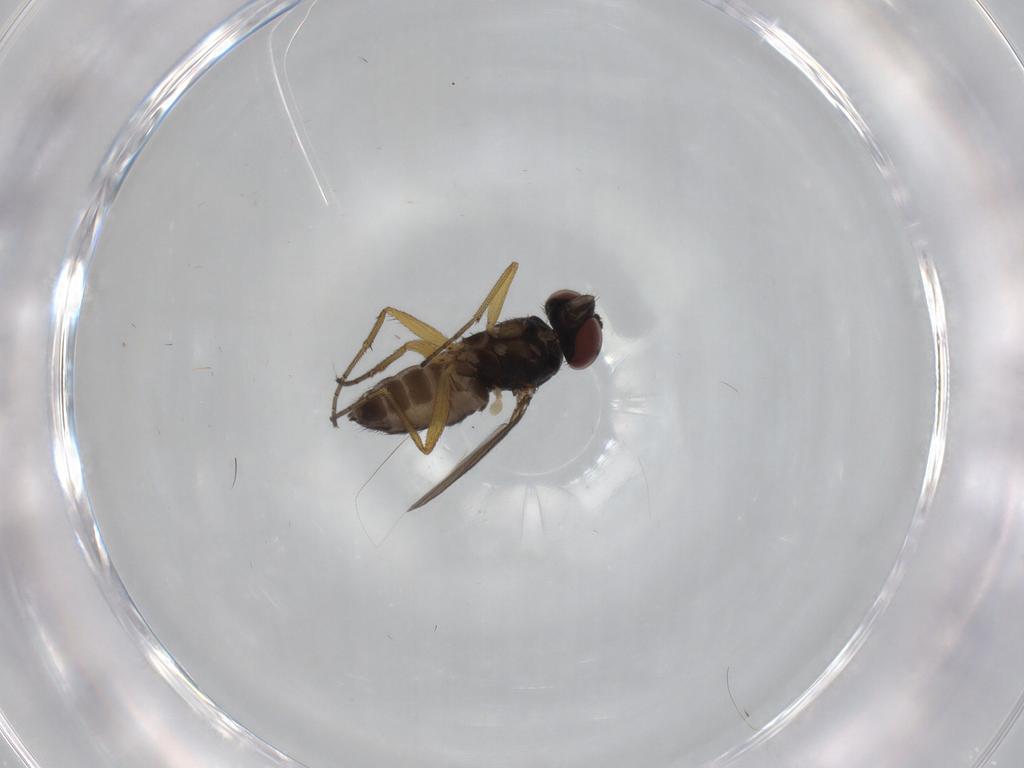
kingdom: Animalia
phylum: Arthropoda
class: Insecta
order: Diptera
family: Dolichopodidae
